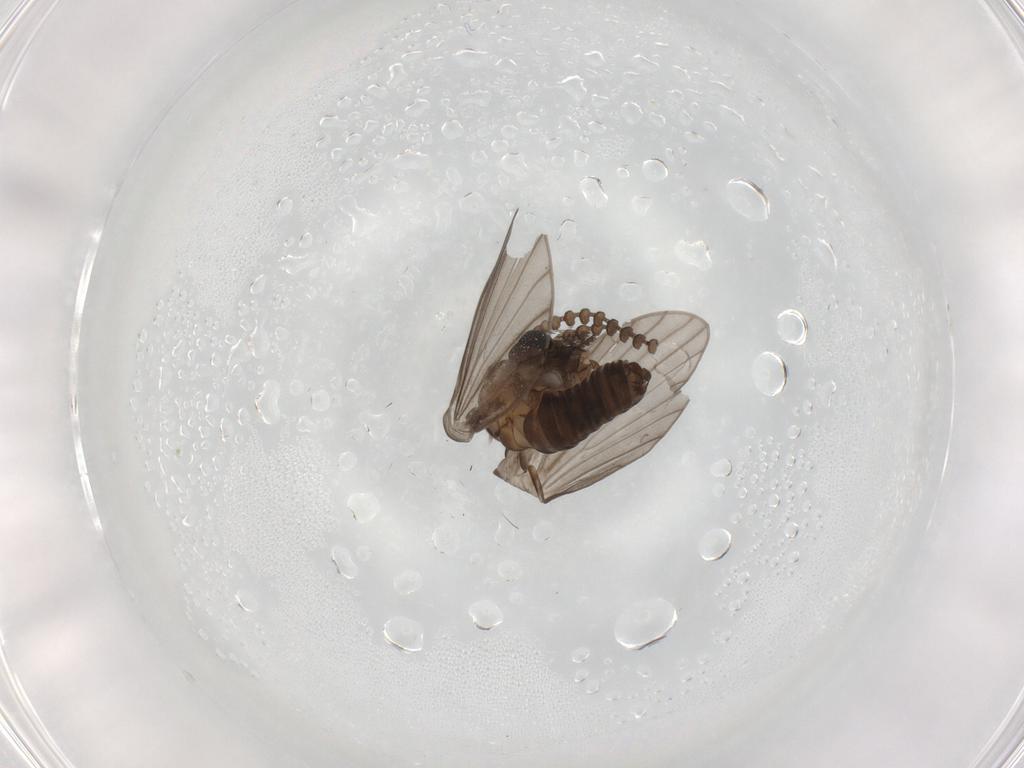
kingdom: Animalia
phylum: Arthropoda
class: Insecta
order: Diptera
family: Psychodidae
